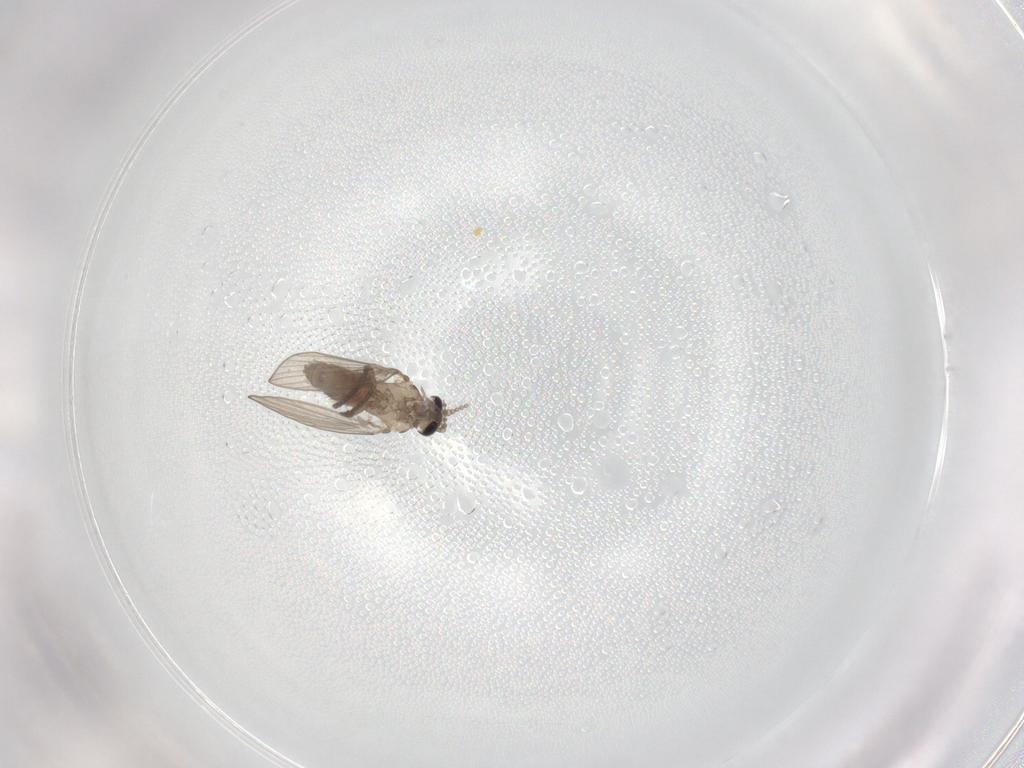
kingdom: Animalia
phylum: Arthropoda
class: Insecta
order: Diptera
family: Psychodidae
